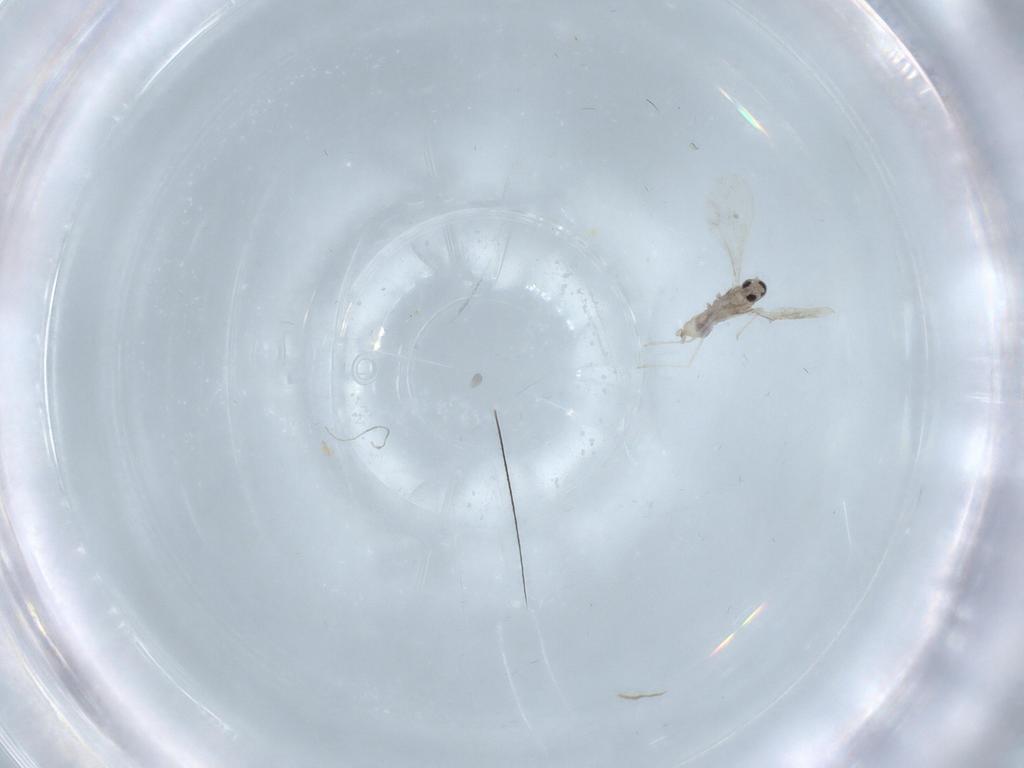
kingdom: Animalia
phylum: Arthropoda
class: Insecta
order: Diptera
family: Cecidomyiidae
